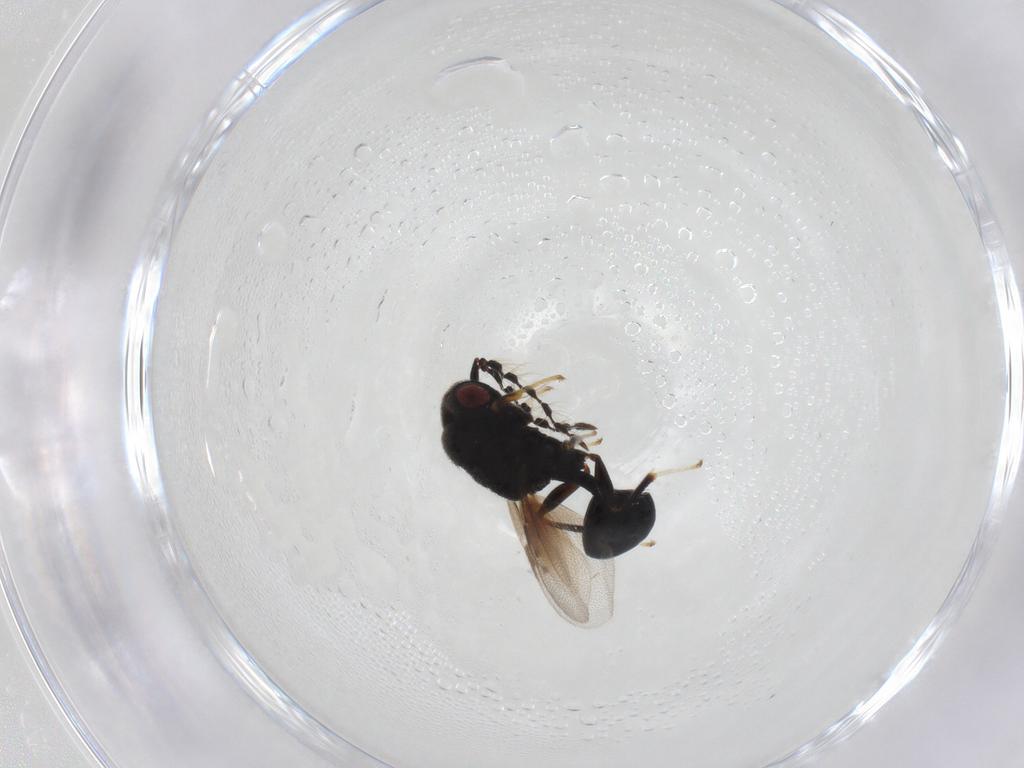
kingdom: Animalia
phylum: Arthropoda
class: Insecta
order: Hymenoptera
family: Eurytomidae
